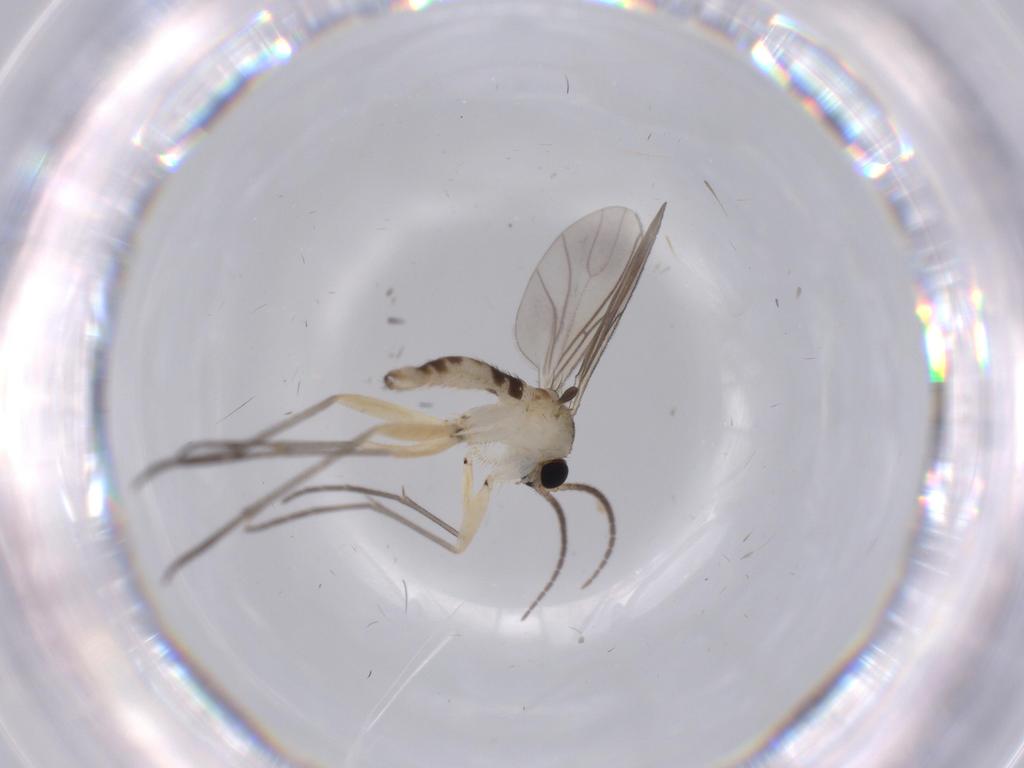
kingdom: Animalia
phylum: Arthropoda
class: Insecta
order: Diptera
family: Sciaridae
